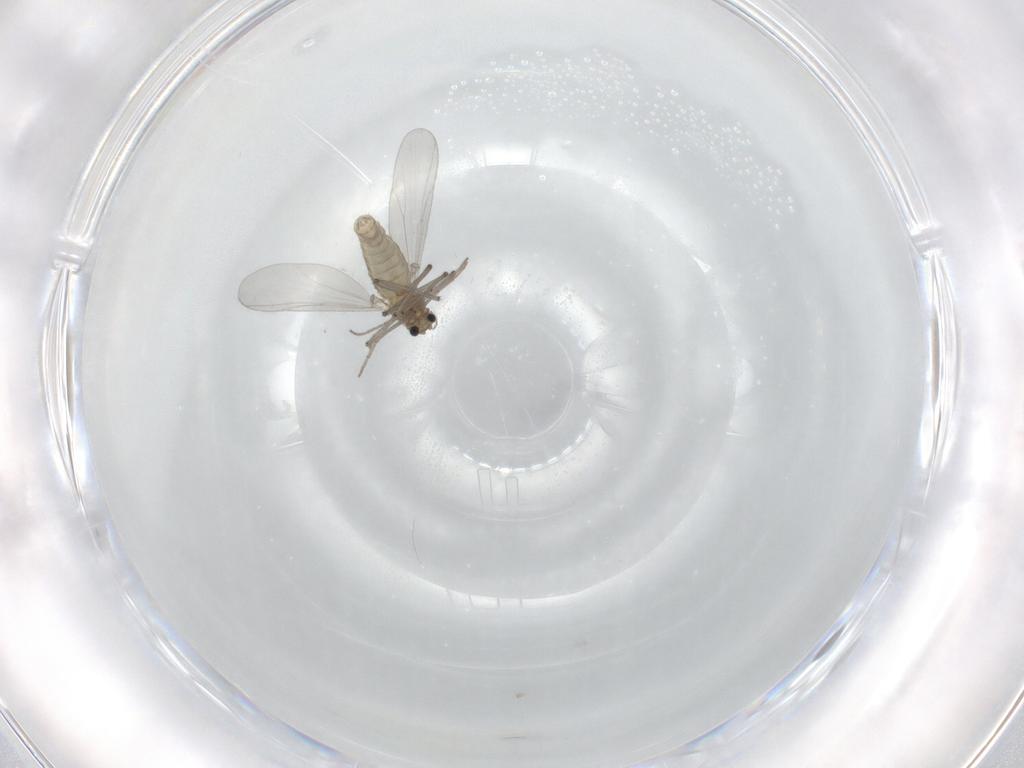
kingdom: Animalia
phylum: Arthropoda
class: Insecta
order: Diptera
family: Chironomidae
